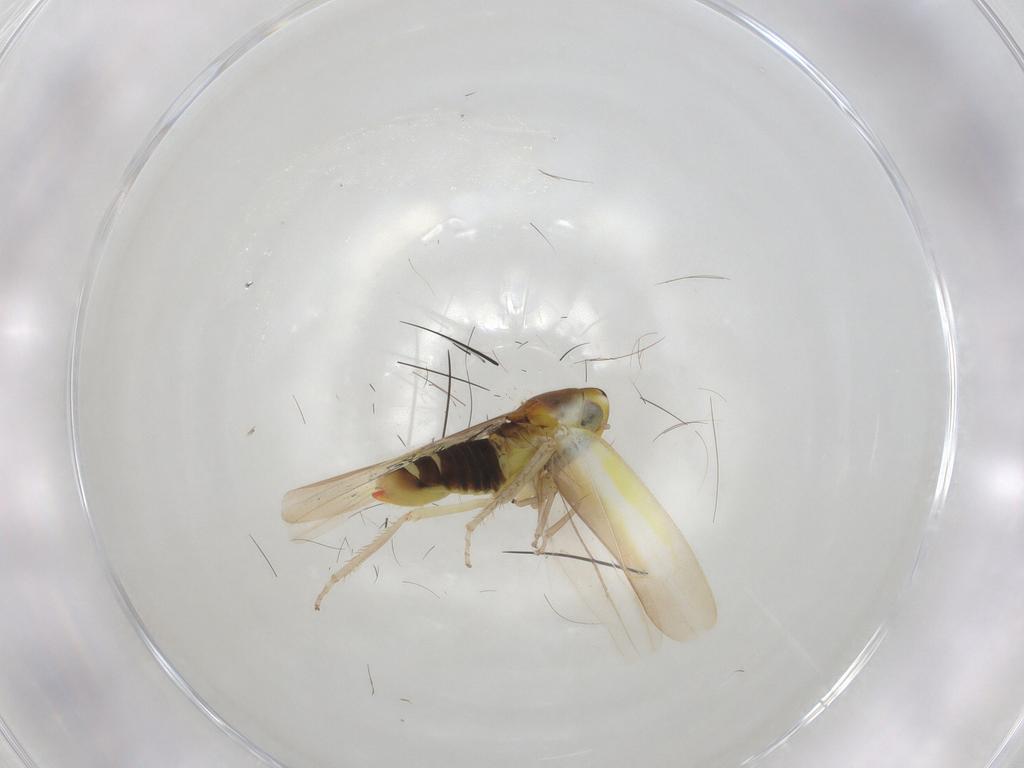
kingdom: Animalia
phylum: Arthropoda
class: Insecta
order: Hemiptera
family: Cicadellidae
